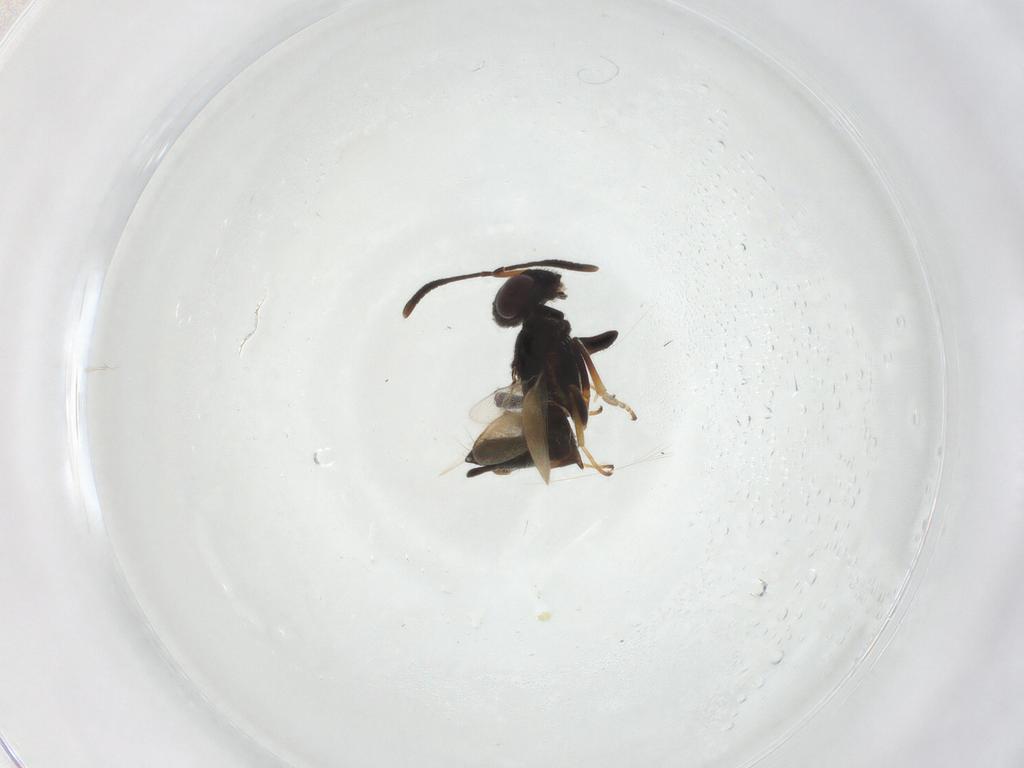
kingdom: Animalia
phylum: Arthropoda
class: Insecta
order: Hymenoptera
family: Eupelmidae
